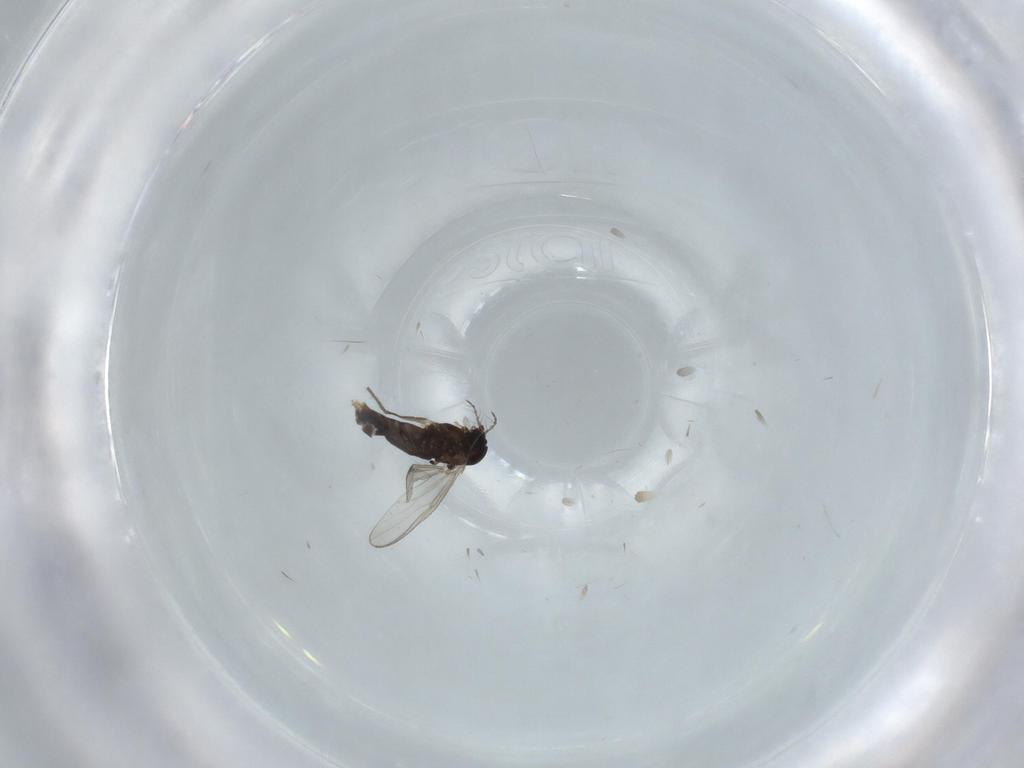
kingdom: Animalia
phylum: Arthropoda
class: Insecta
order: Diptera
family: Chironomidae
